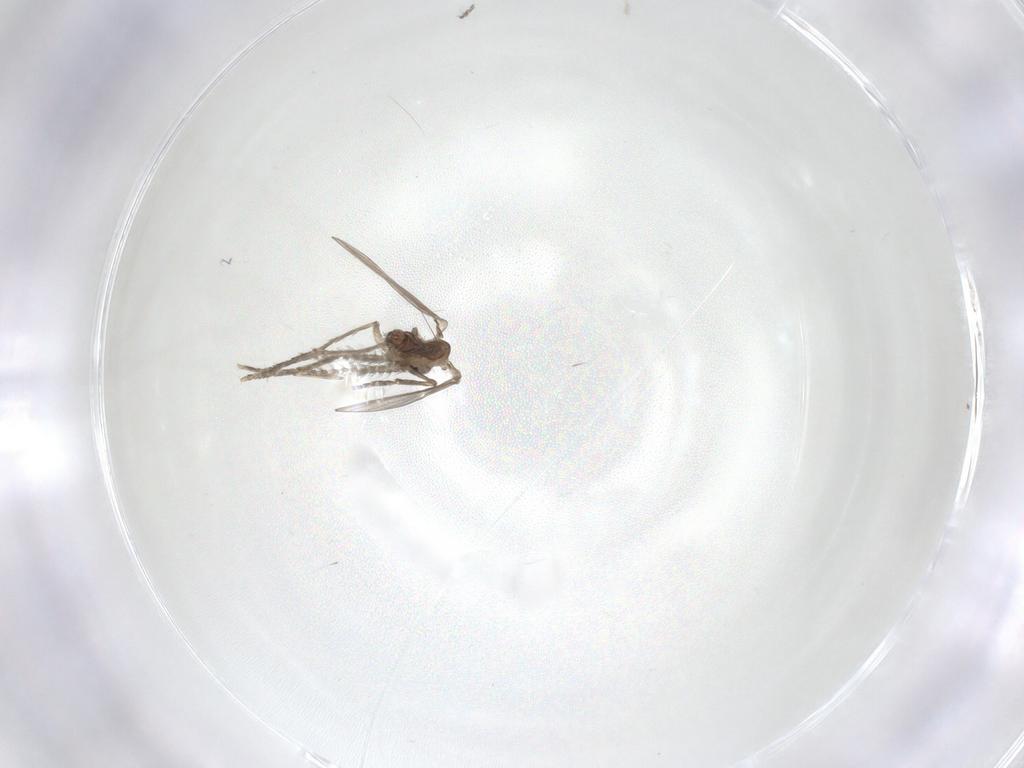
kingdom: Animalia
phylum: Arthropoda
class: Insecta
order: Diptera
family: Psychodidae
